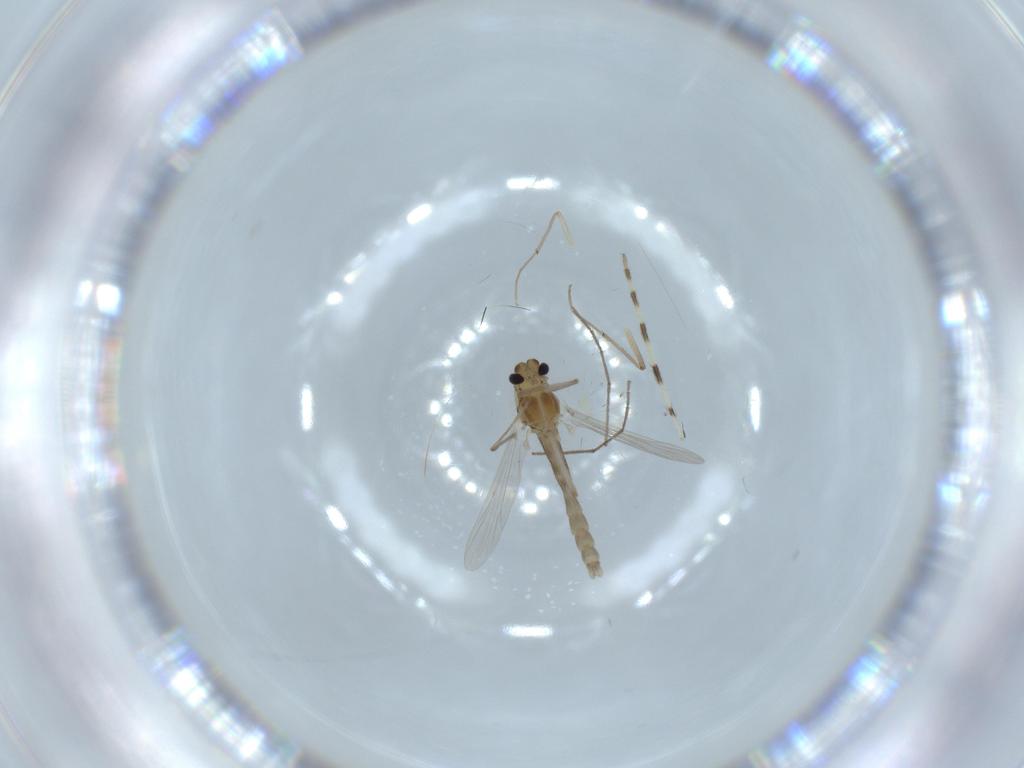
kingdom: Animalia
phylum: Arthropoda
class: Insecta
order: Diptera
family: Chironomidae
